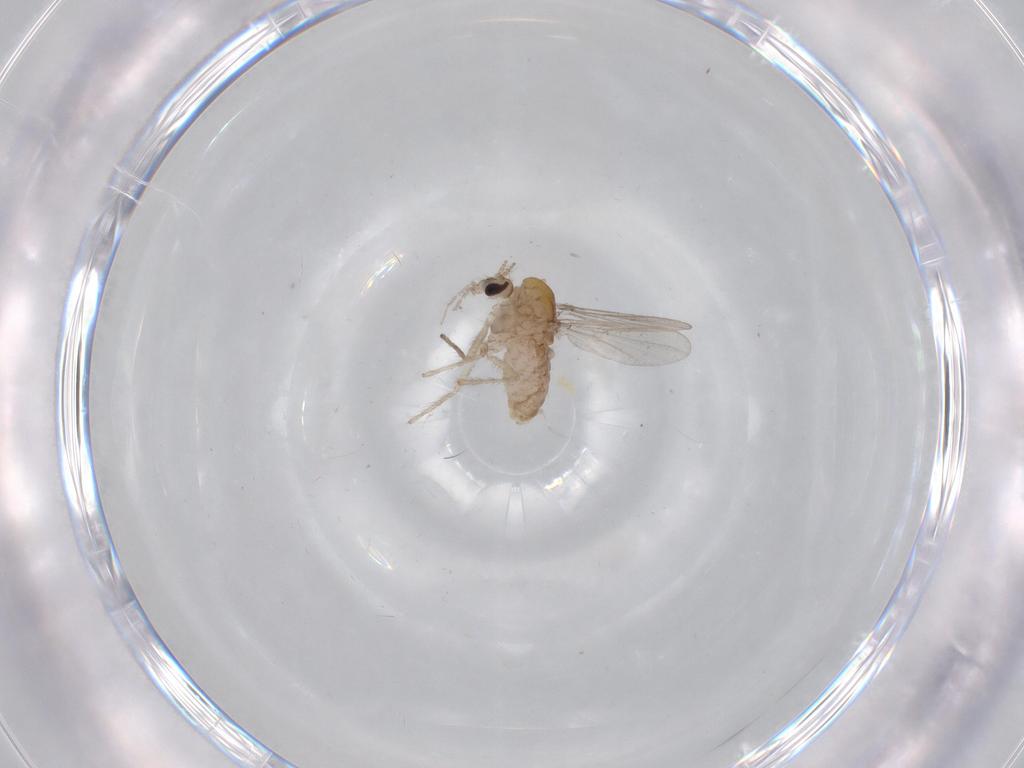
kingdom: Animalia
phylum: Arthropoda
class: Insecta
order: Diptera
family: Chironomidae
